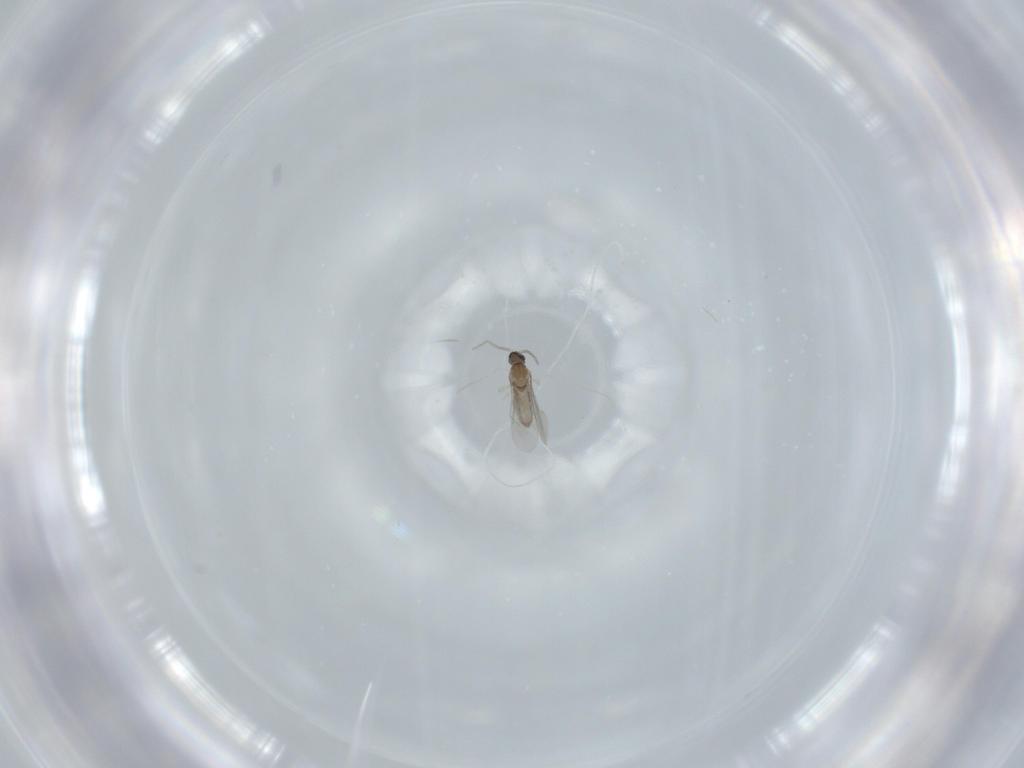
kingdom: Animalia
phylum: Arthropoda
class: Insecta
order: Diptera
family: Cecidomyiidae
